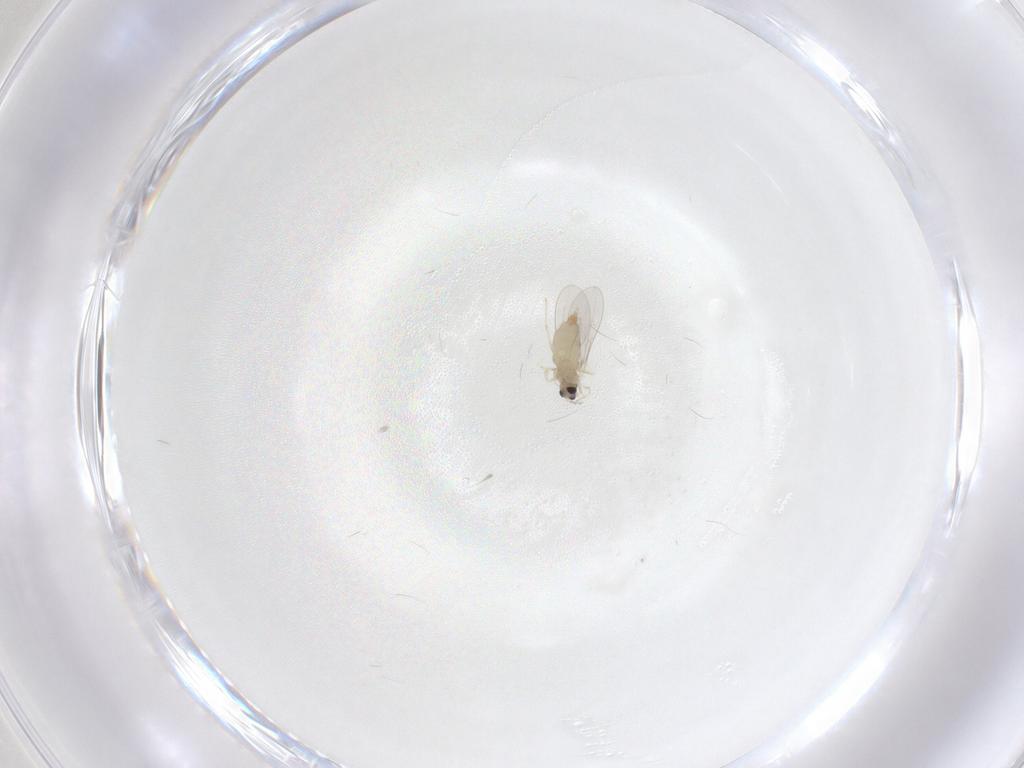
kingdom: Animalia
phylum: Arthropoda
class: Insecta
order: Diptera
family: Cecidomyiidae
